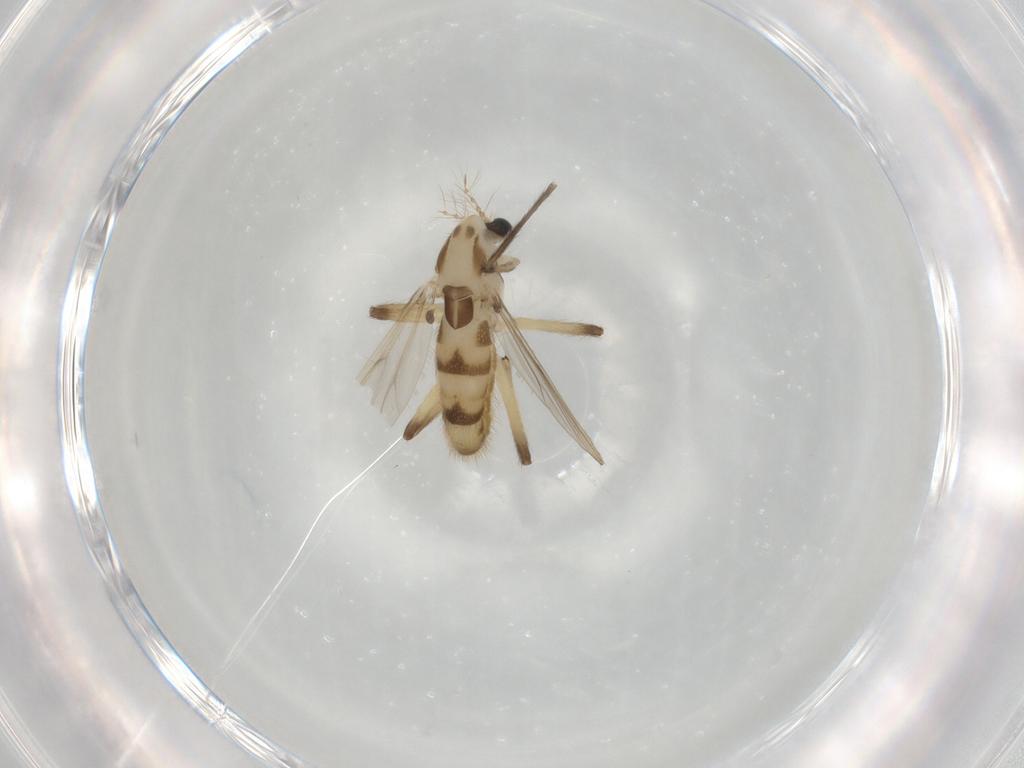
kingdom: Animalia
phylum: Arthropoda
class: Insecta
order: Diptera
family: Chironomidae
